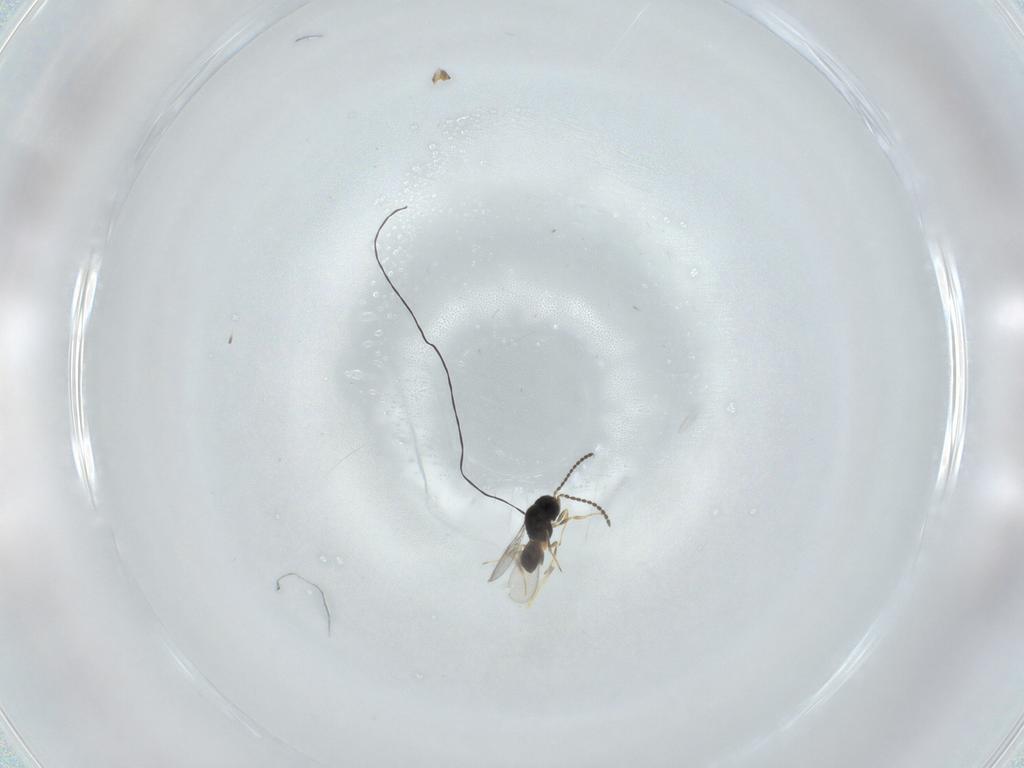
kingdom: Animalia
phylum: Arthropoda
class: Insecta
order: Hymenoptera
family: Scelionidae
